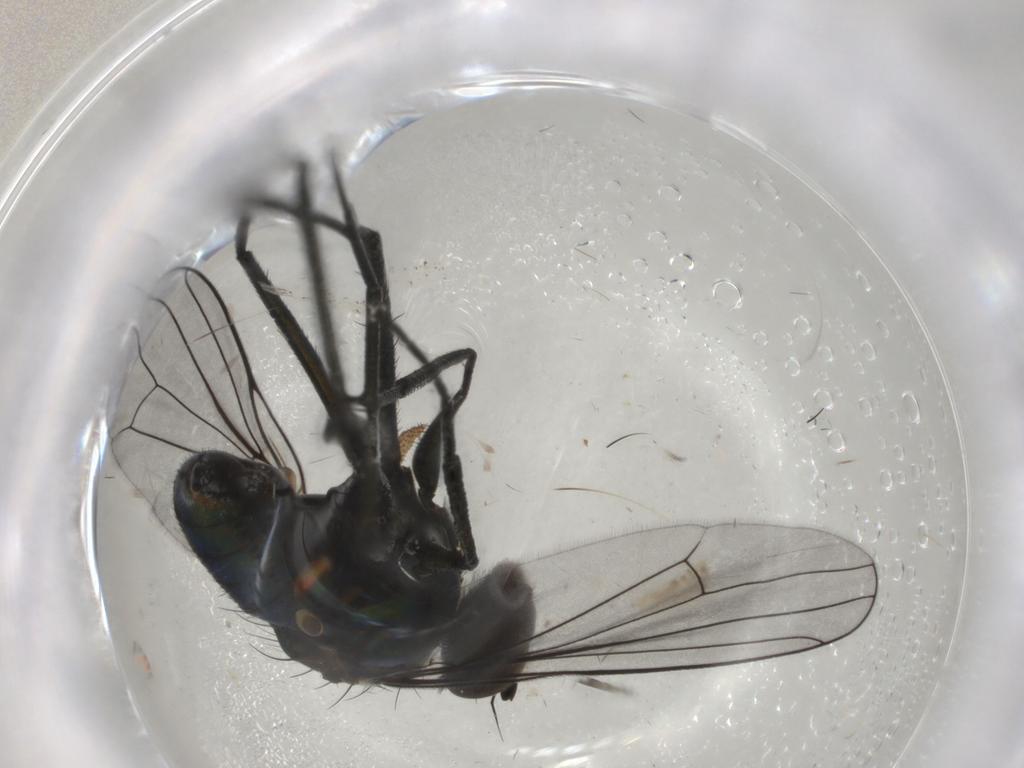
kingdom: Animalia
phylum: Arthropoda
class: Insecta
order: Diptera
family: Dolichopodidae
